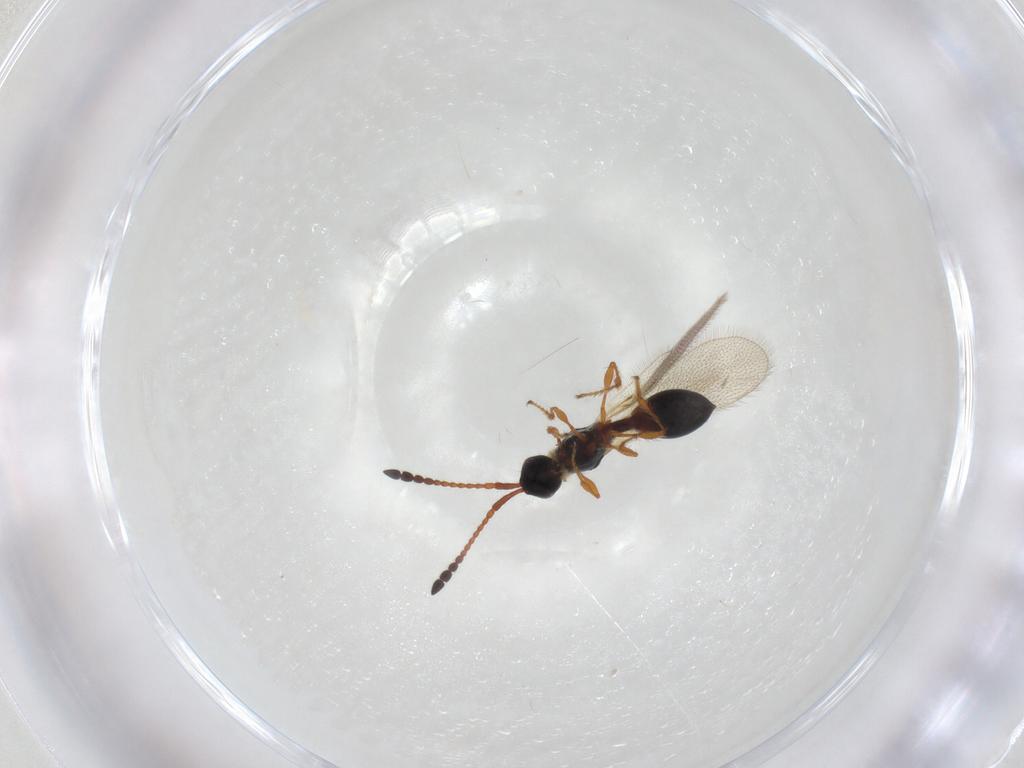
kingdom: Animalia
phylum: Arthropoda
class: Insecta
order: Hymenoptera
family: Diapriidae
